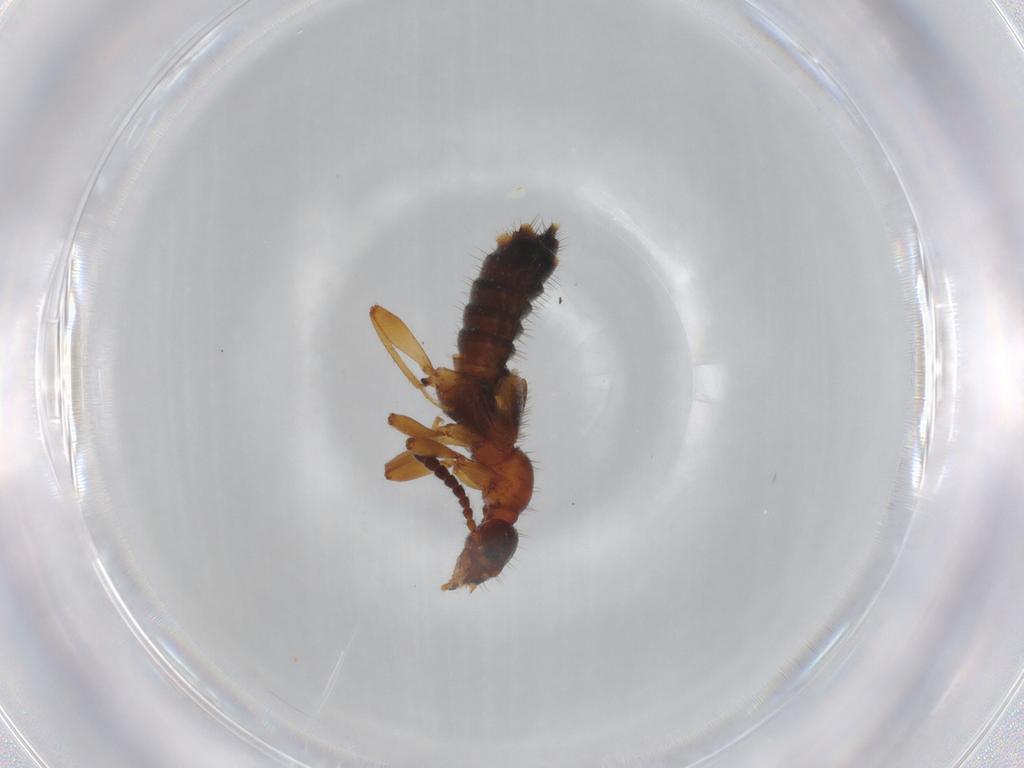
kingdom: Animalia
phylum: Arthropoda
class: Insecta
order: Coleoptera
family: Staphylinidae
